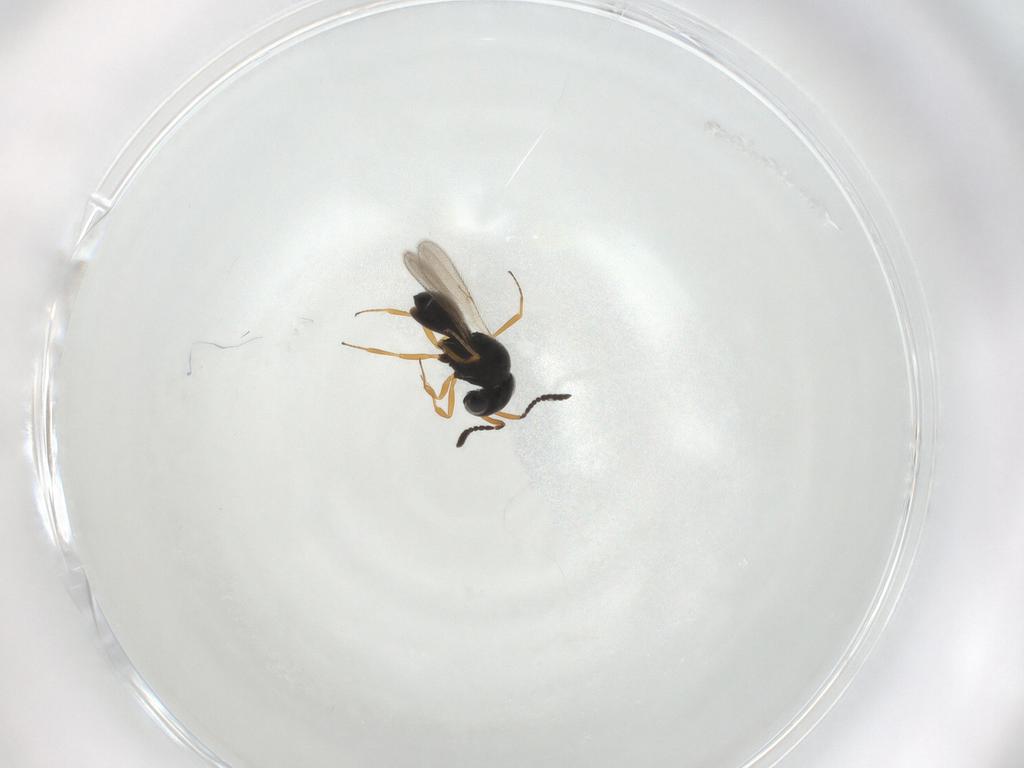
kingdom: Animalia
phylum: Arthropoda
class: Insecta
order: Hymenoptera
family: Scelionidae
